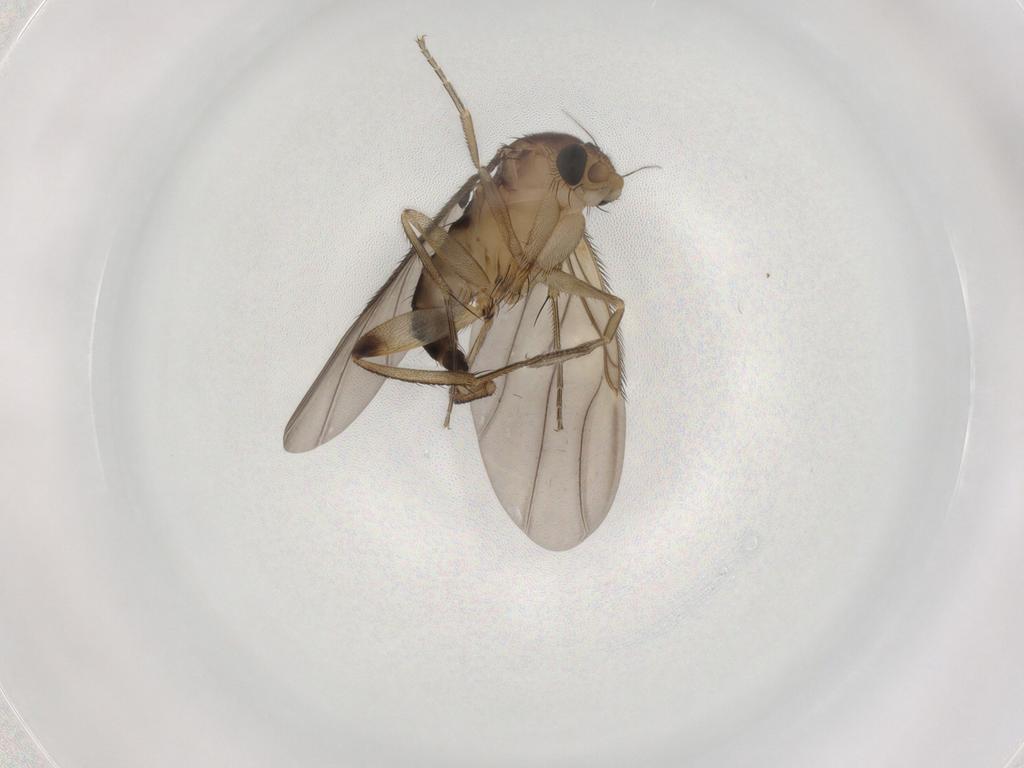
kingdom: Animalia
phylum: Arthropoda
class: Insecta
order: Diptera
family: Phoridae
